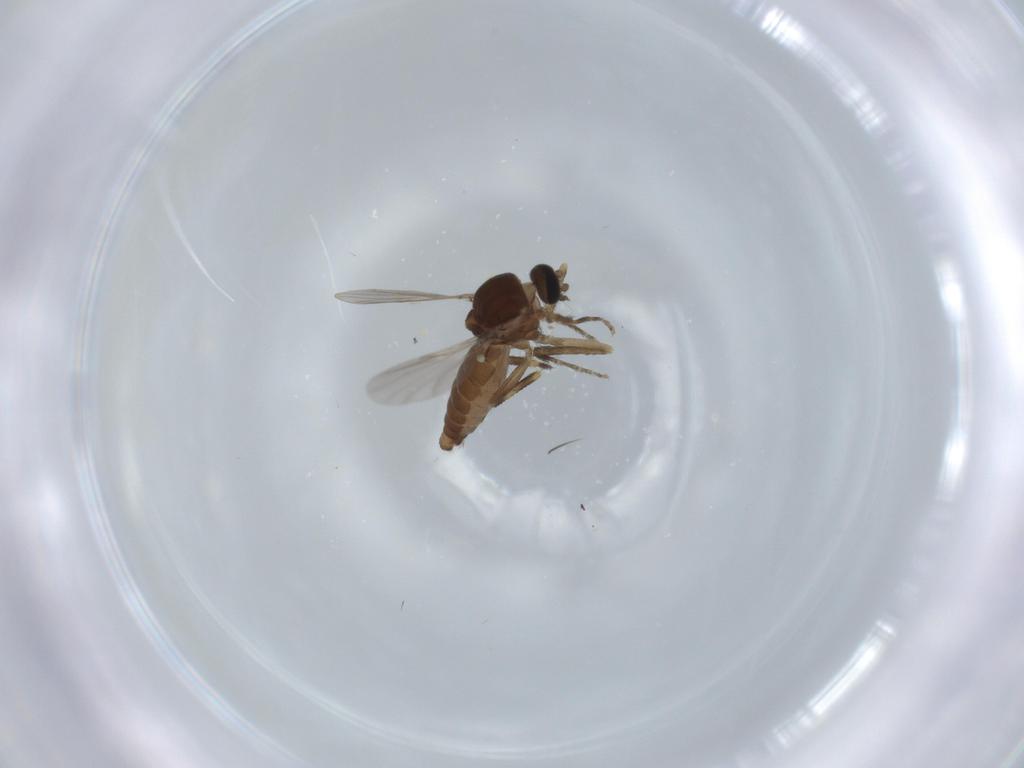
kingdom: Animalia
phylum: Arthropoda
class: Insecta
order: Diptera
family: Ceratopogonidae
